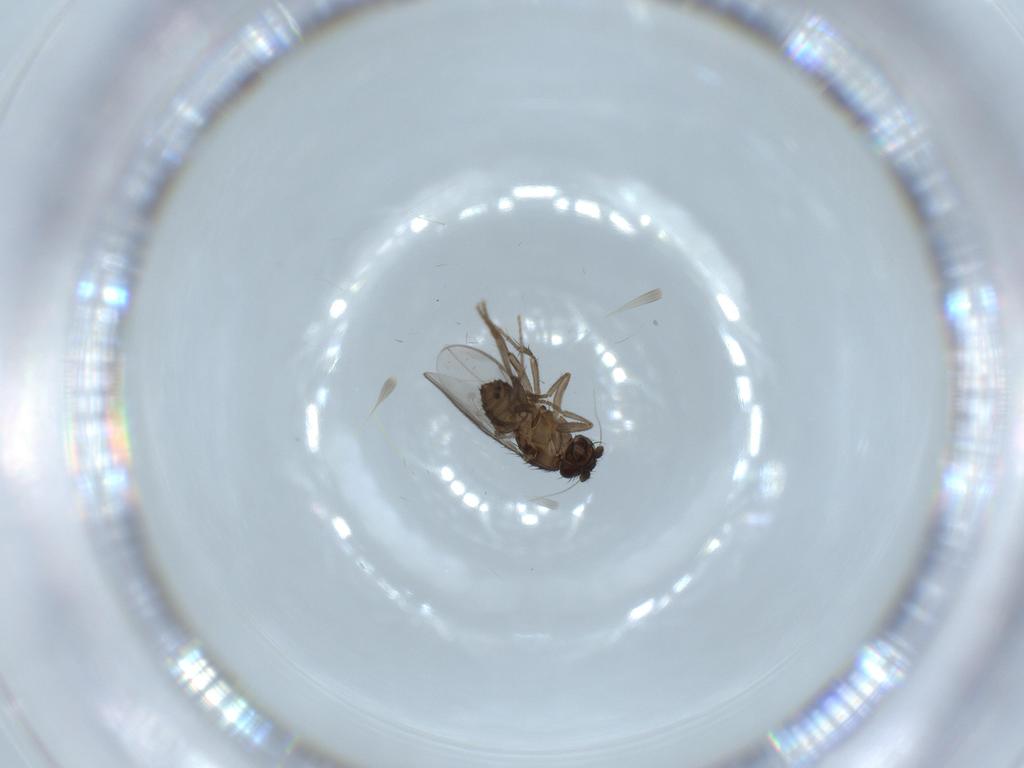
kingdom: Animalia
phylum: Arthropoda
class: Insecta
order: Diptera
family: Sphaeroceridae
